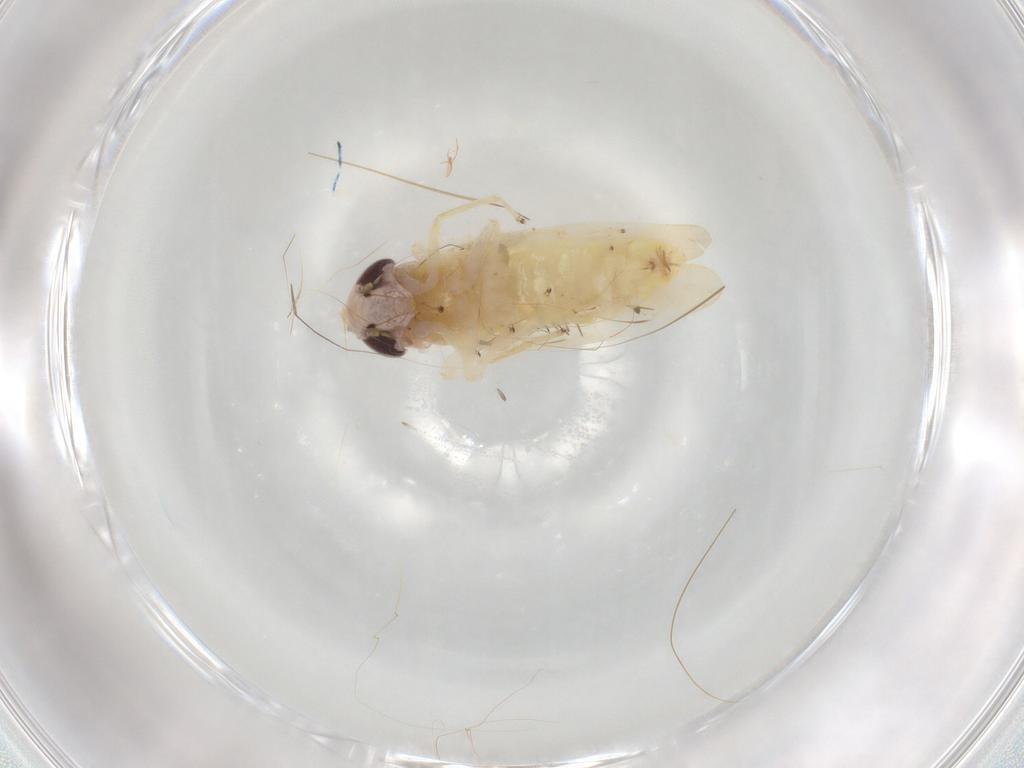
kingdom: Animalia
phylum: Arthropoda
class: Insecta
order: Hemiptera
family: Cicadellidae
